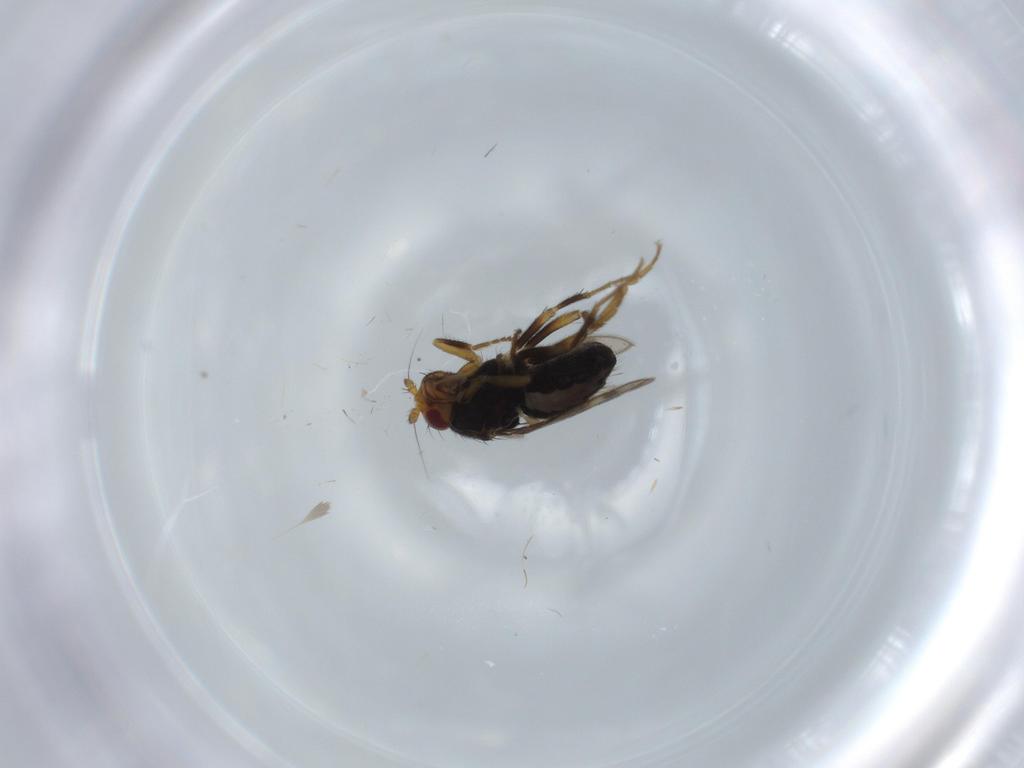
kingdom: Animalia
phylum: Arthropoda
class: Insecta
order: Diptera
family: Sphaeroceridae
